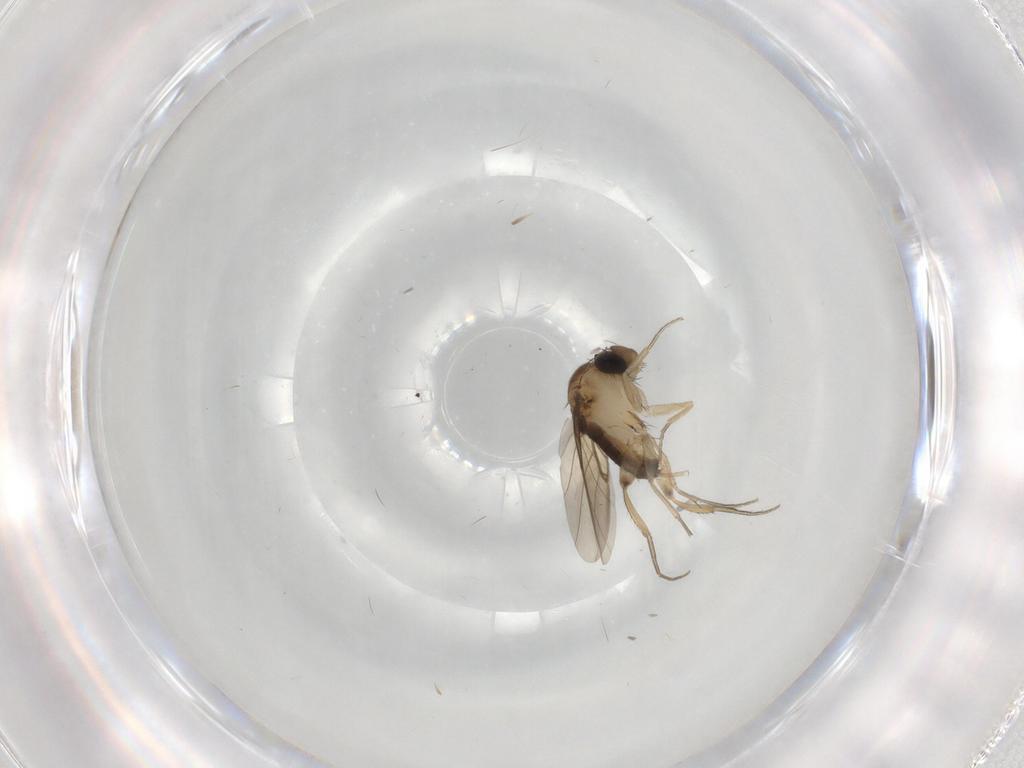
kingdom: Animalia
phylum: Arthropoda
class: Insecta
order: Diptera
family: Phoridae
